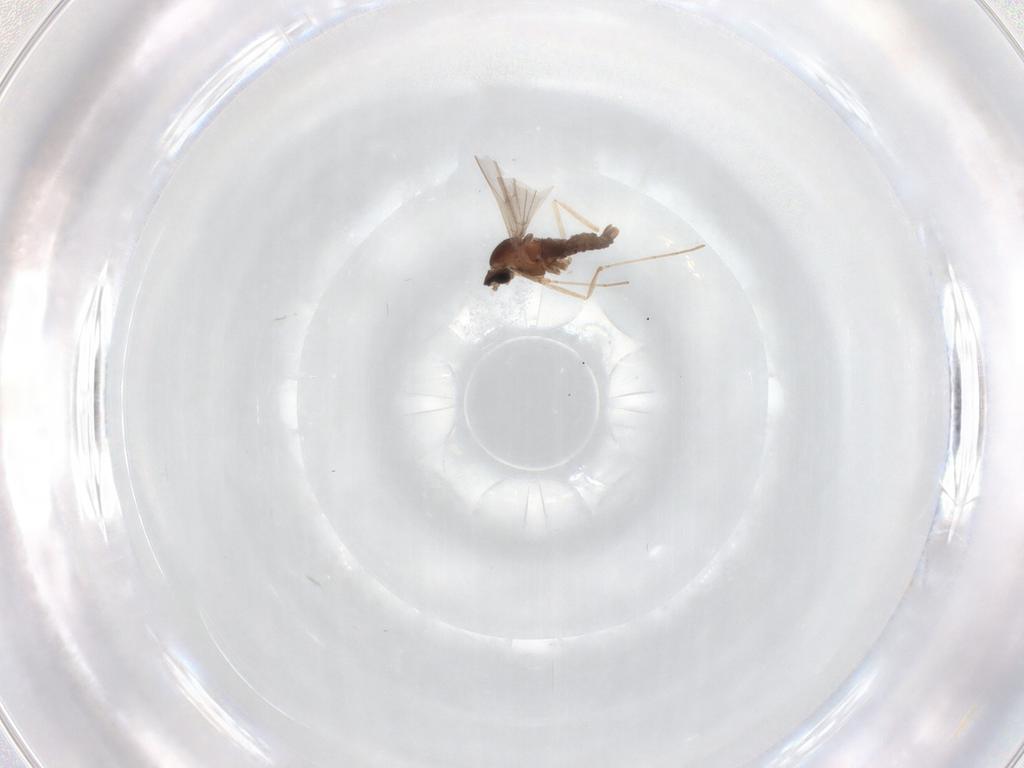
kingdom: Animalia
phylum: Arthropoda
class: Insecta
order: Diptera
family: Cecidomyiidae
